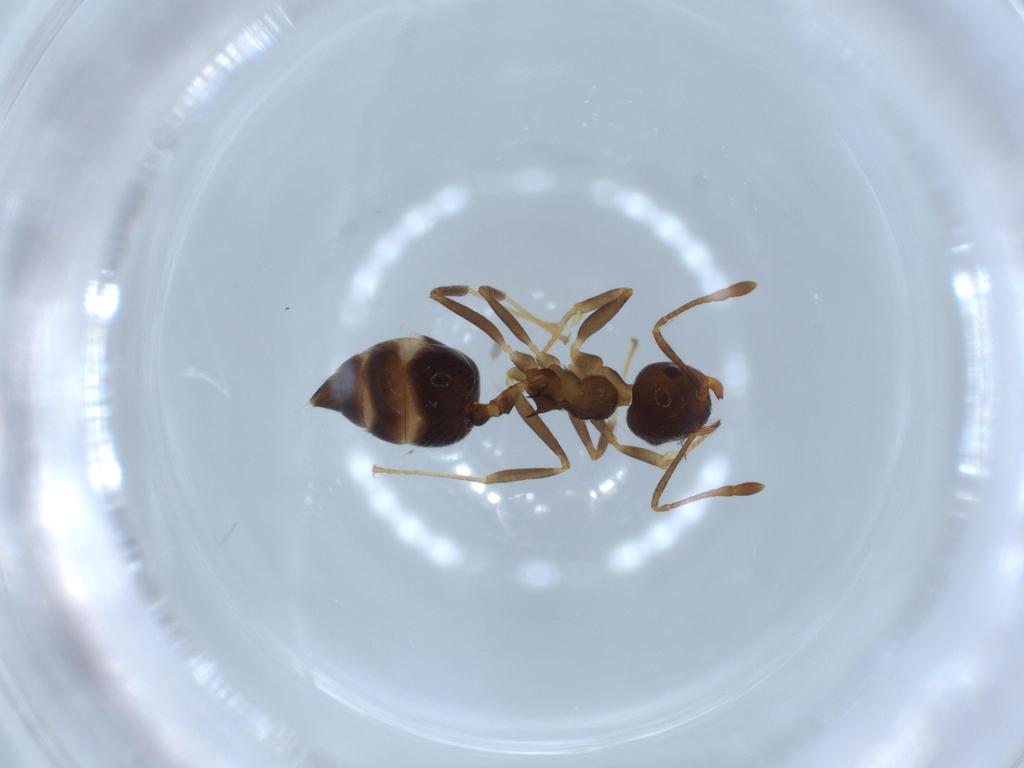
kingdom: Animalia
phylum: Arthropoda
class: Insecta
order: Hymenoptera
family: Formicidae
